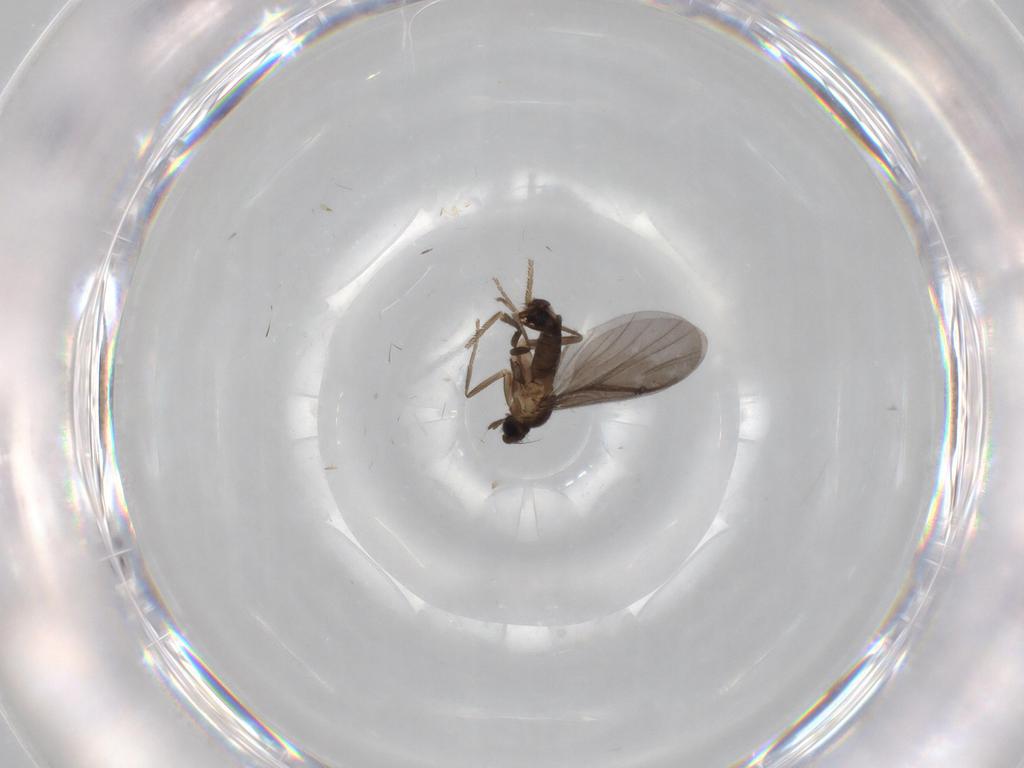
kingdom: Animalia
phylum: Arthropoda
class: Insecta
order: Diptera
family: Phoridae
